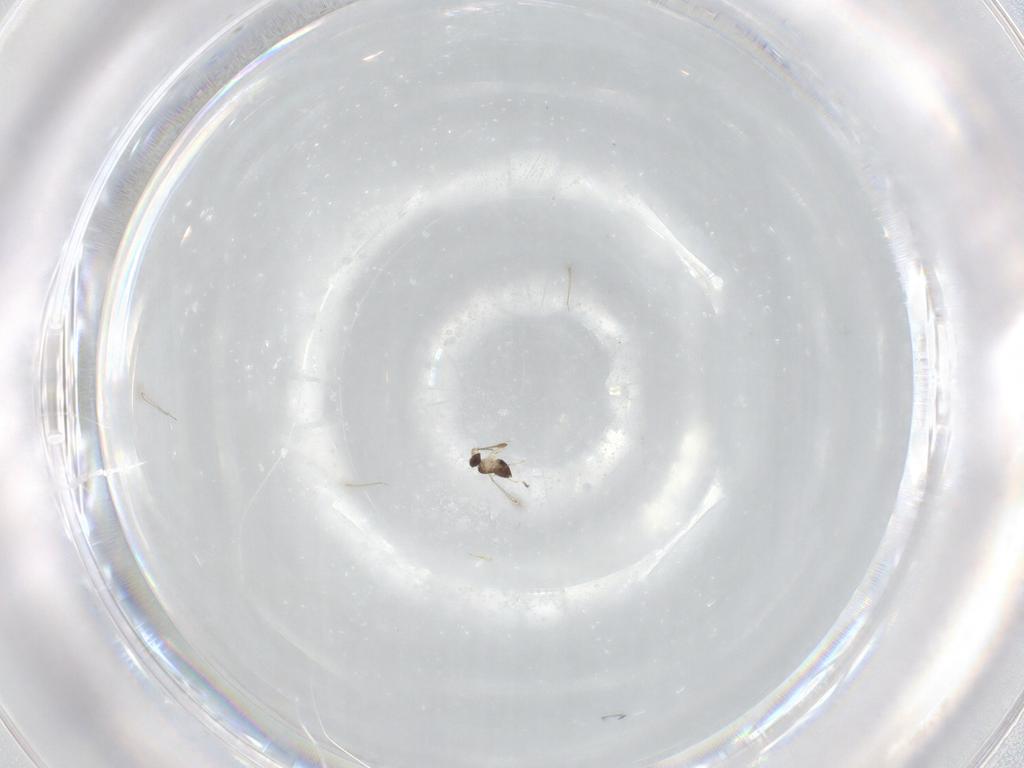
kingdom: Animalia
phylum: Arthropoda
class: Insecta
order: Hymenoptera
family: Mymaridae
